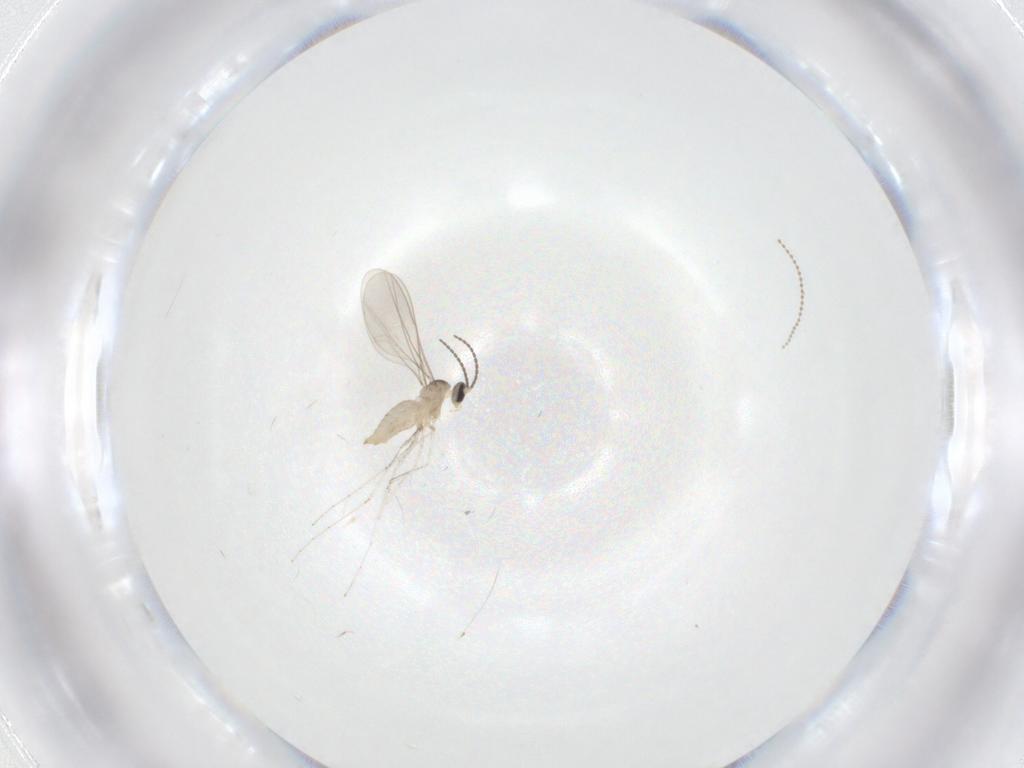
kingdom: Animalia
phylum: Arthropoda
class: Insecta
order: Diptera
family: Cecidomyiidae
